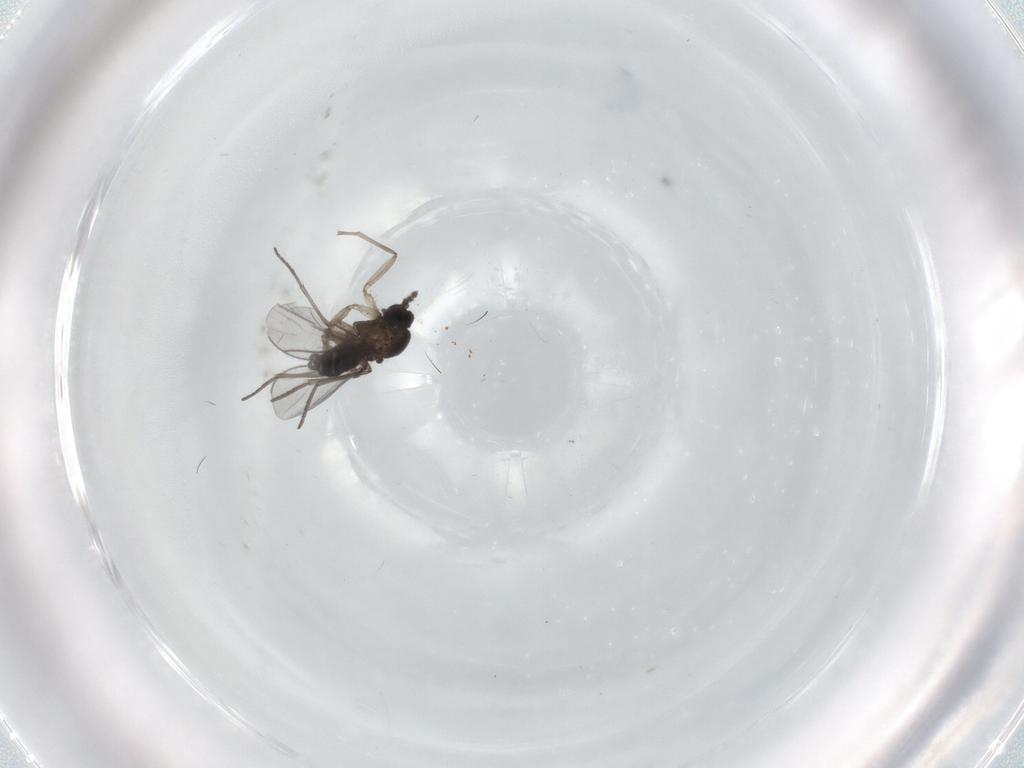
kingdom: Animalia
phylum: Arthropoda
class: Insecta
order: Diptera
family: Ceratopogonidae
